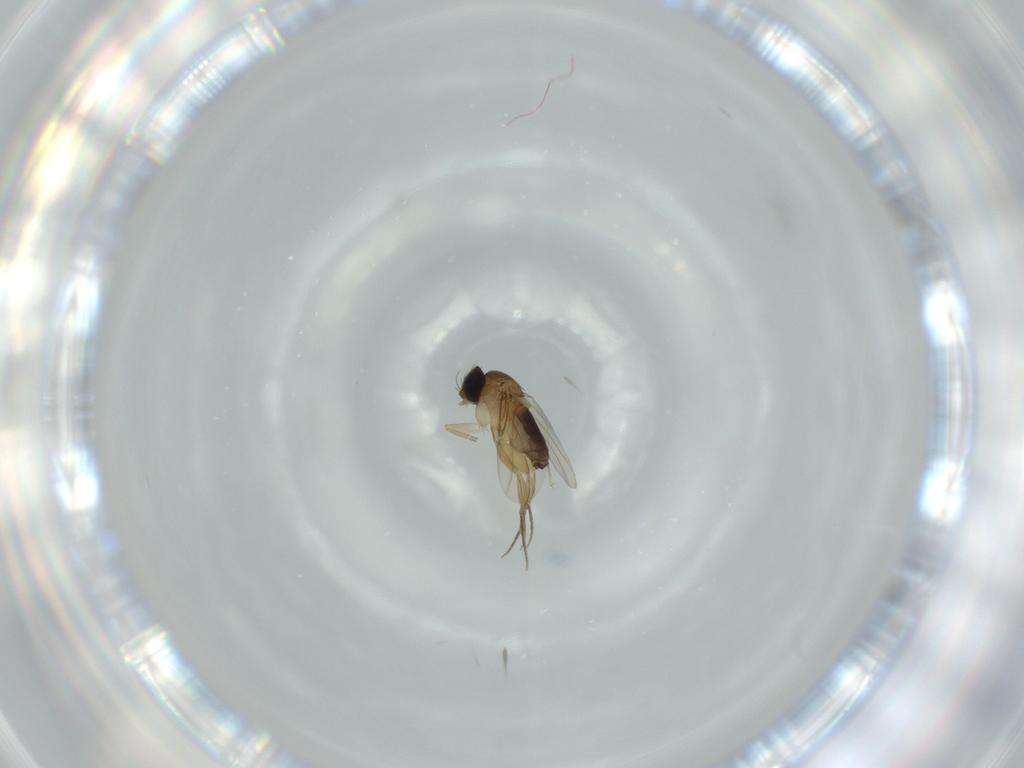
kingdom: Animalia
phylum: Arthropoda
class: Insecta
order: Diptera
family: Phoridae
